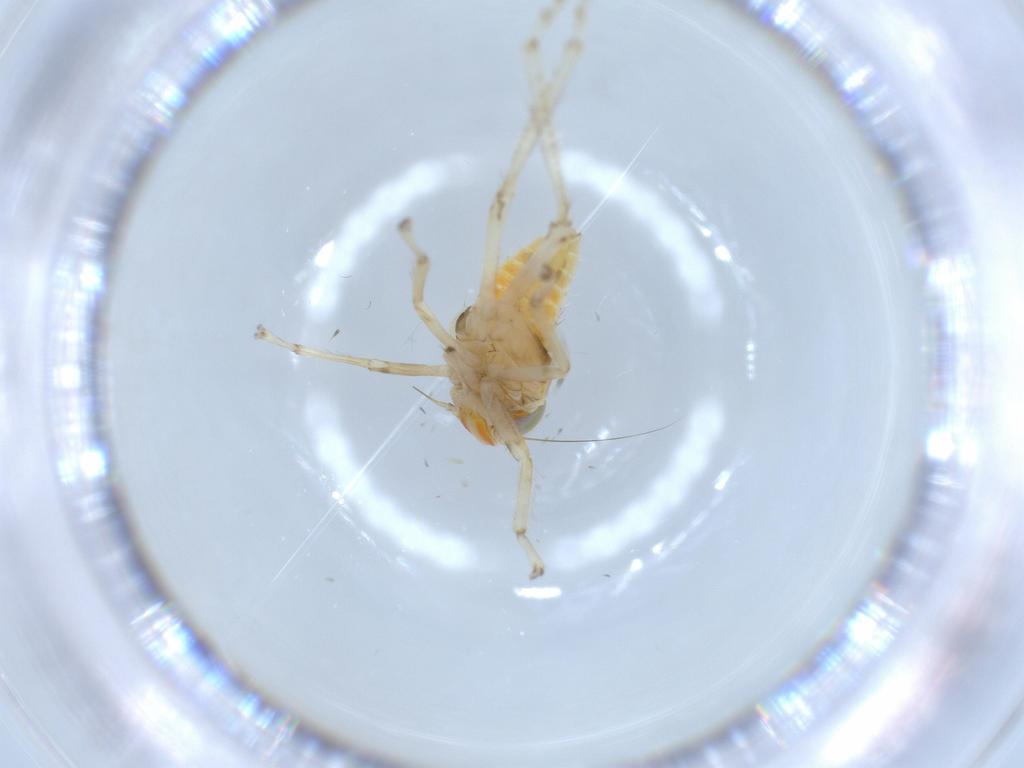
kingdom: Animalia
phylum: Arthropoda
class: Insecta
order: Hemiptera
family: Cicadellidae
